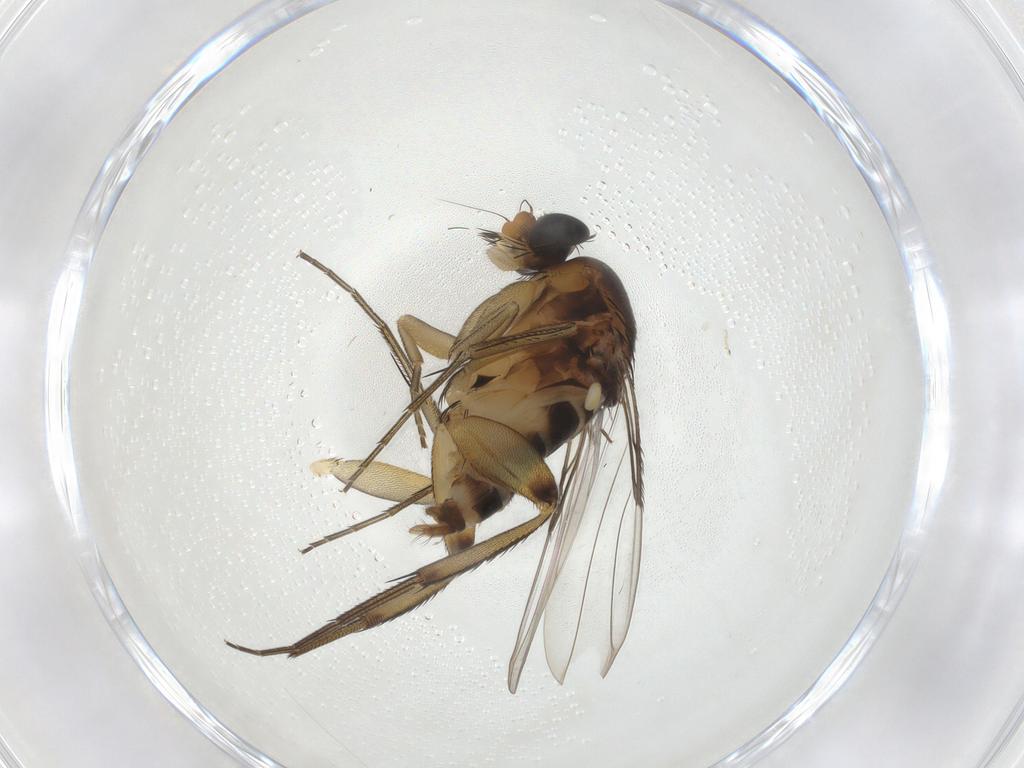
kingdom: Animalia
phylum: Arthropoda
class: Insecta
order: Diptera
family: Phoridae
